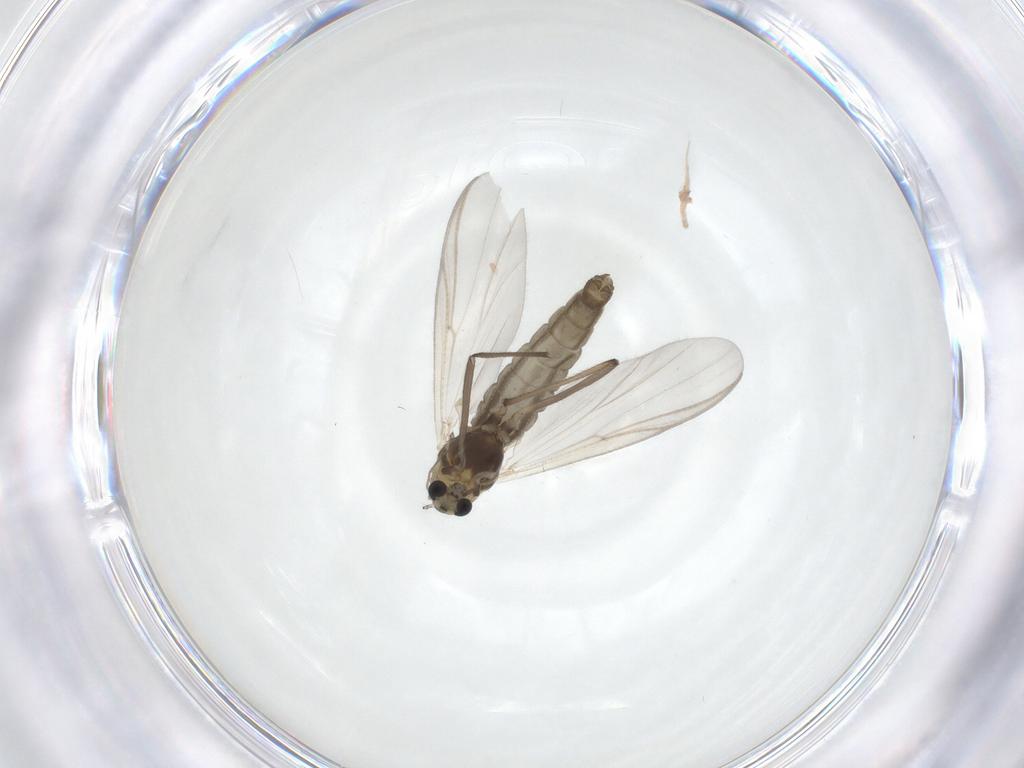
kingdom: Animalia
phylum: Arthropoda
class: Insecta
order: Diptera
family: Chironomidae
